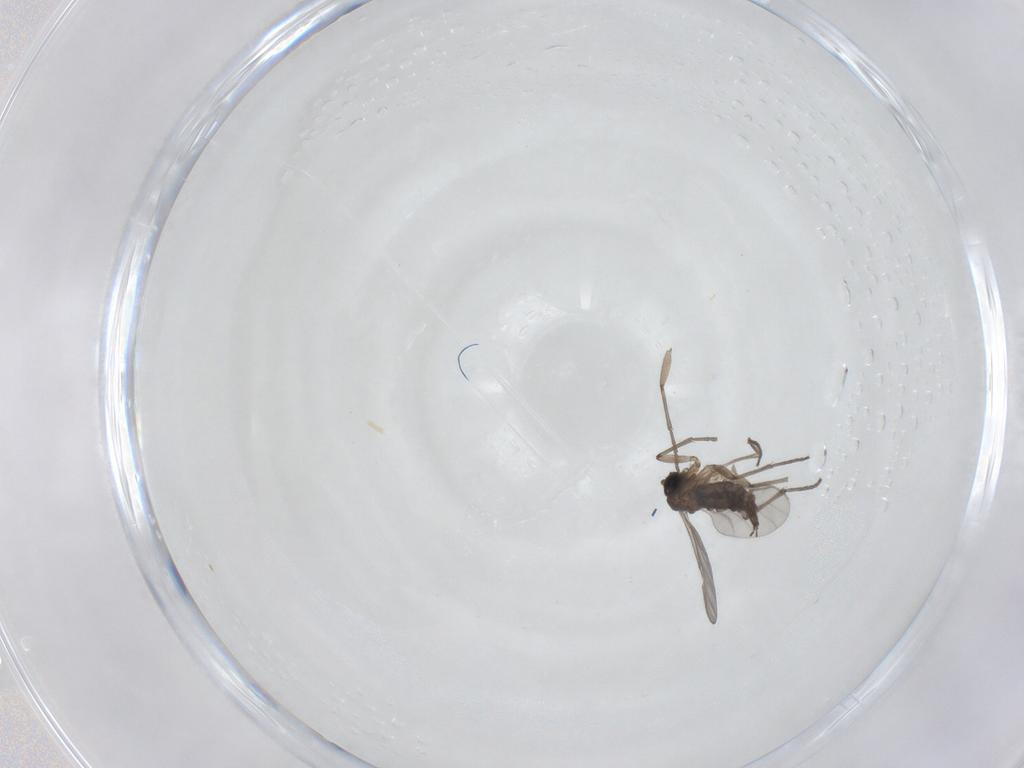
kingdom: Animalia
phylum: Arthropoda
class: Insecta
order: Diptera
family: Sciaridae
